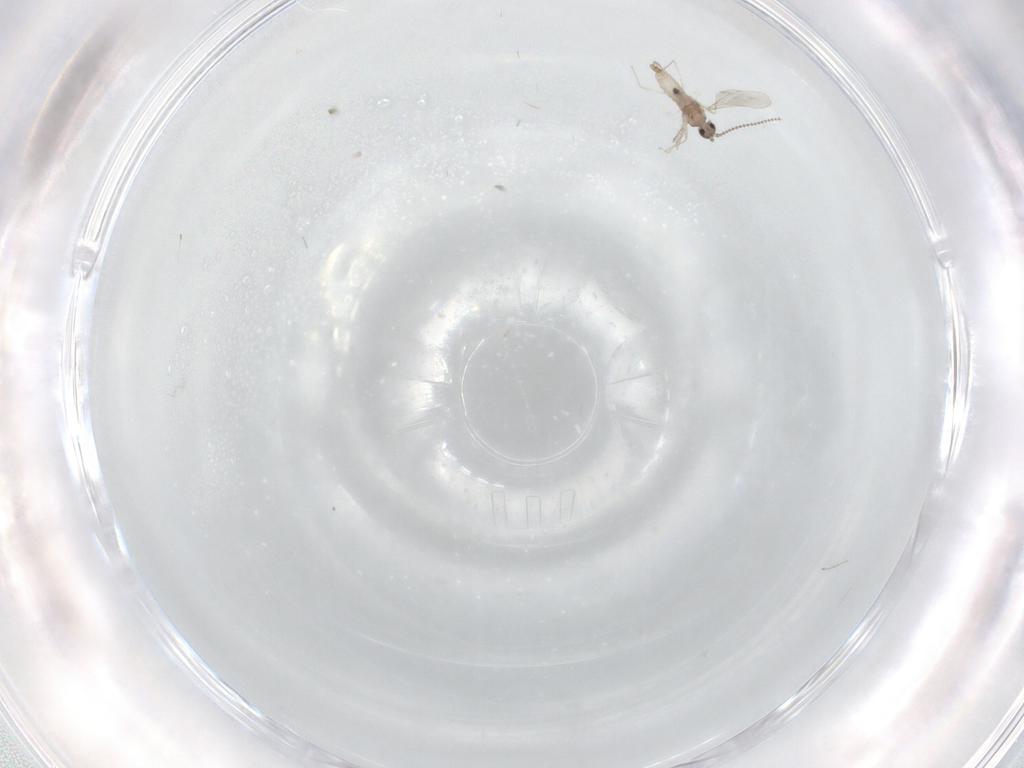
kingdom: Animalia
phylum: Arthropoda
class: Insecta
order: Diptera
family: Cecidomyiidae
